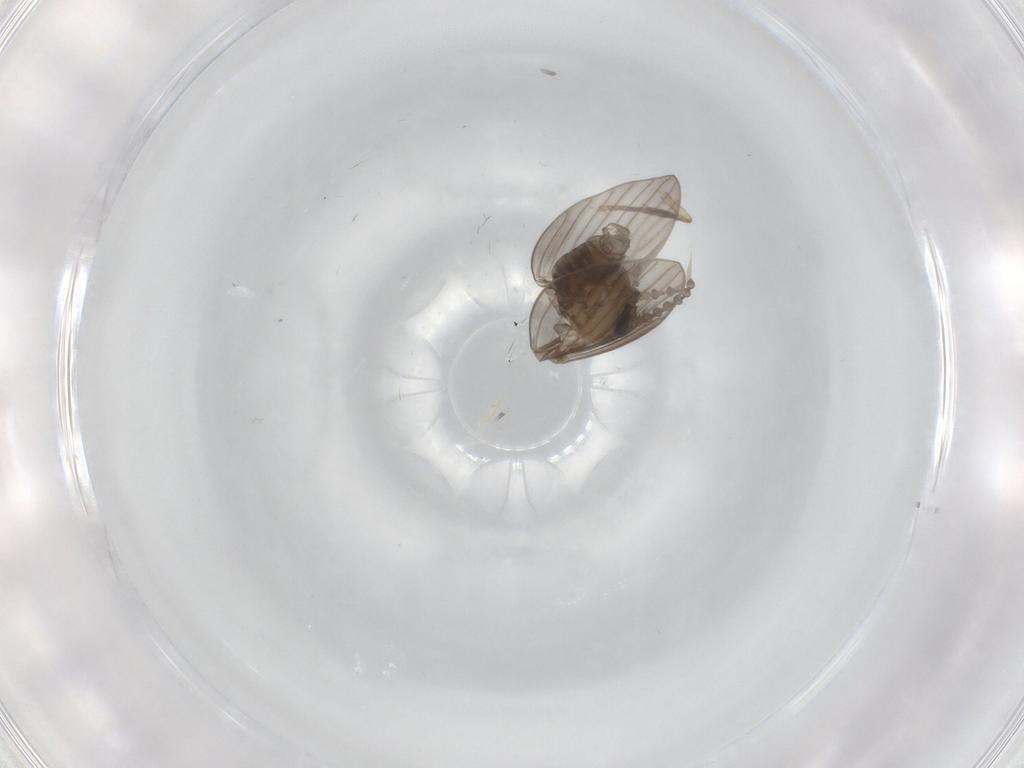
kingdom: Animalia
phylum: Arthropoda
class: Insecta
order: Diptera
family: Psychodidae
